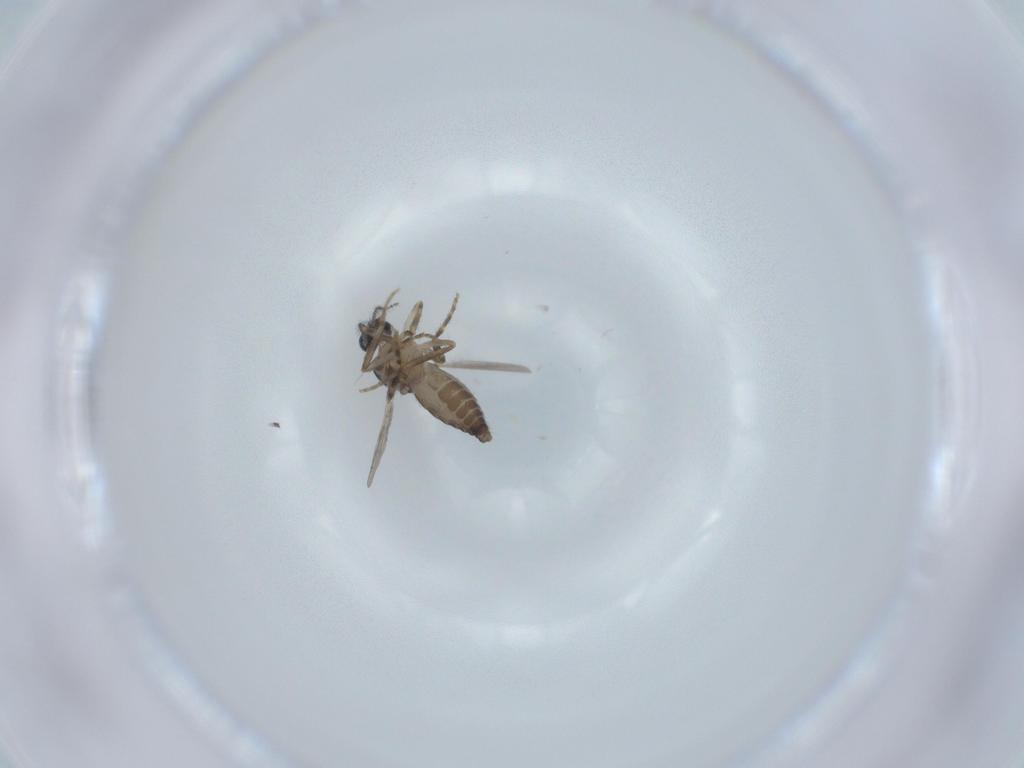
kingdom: Animalia
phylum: Arthropoda
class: Insecta
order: Diptera
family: Ceratopogonidae
